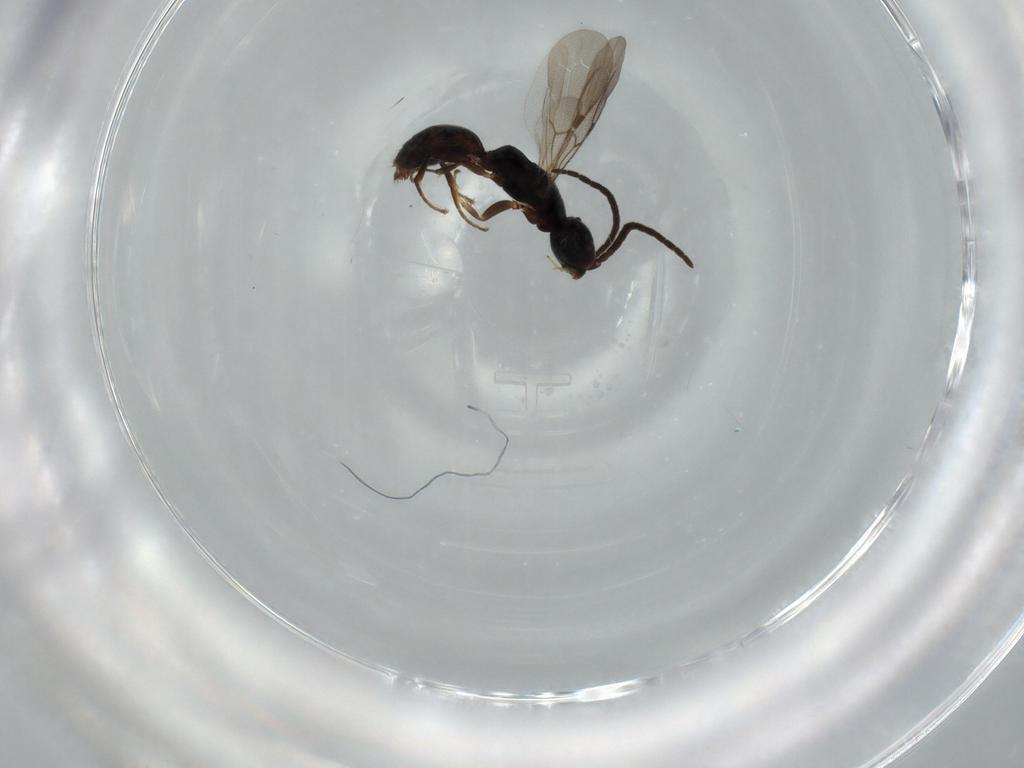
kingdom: Animalia
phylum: Arthropoda
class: Insecta
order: Hymenoptera
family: Bethylidae
